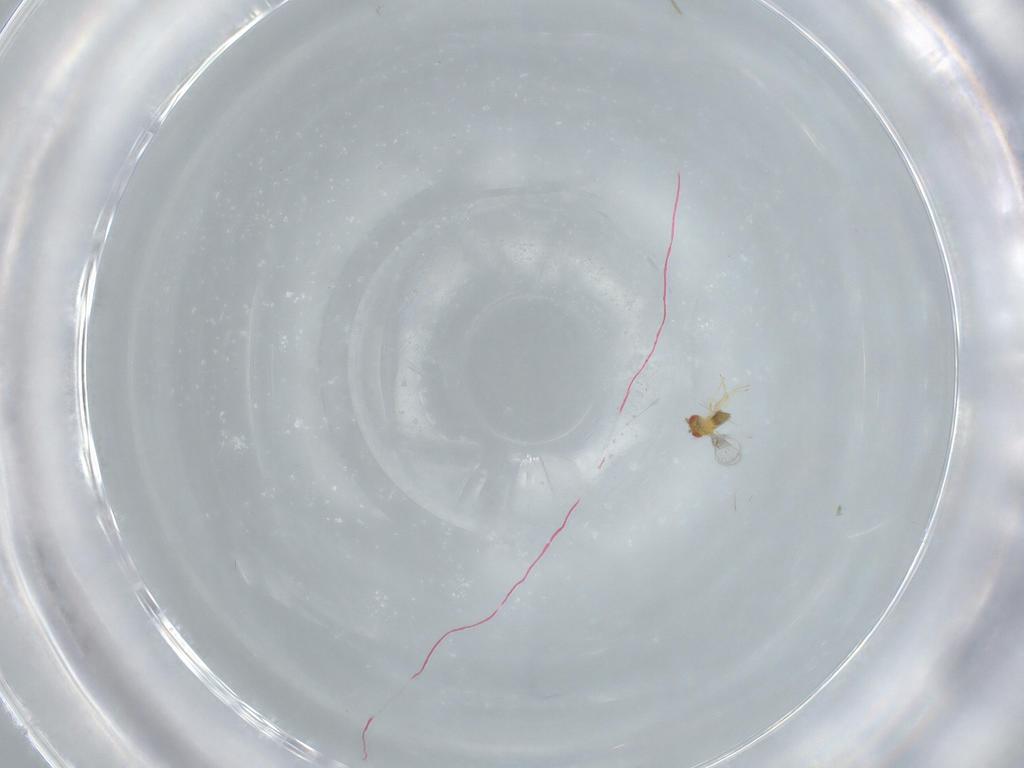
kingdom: Animalia
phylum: Arthropoda
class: Insecta
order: Hymenoptera
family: Trichogrammatidae
